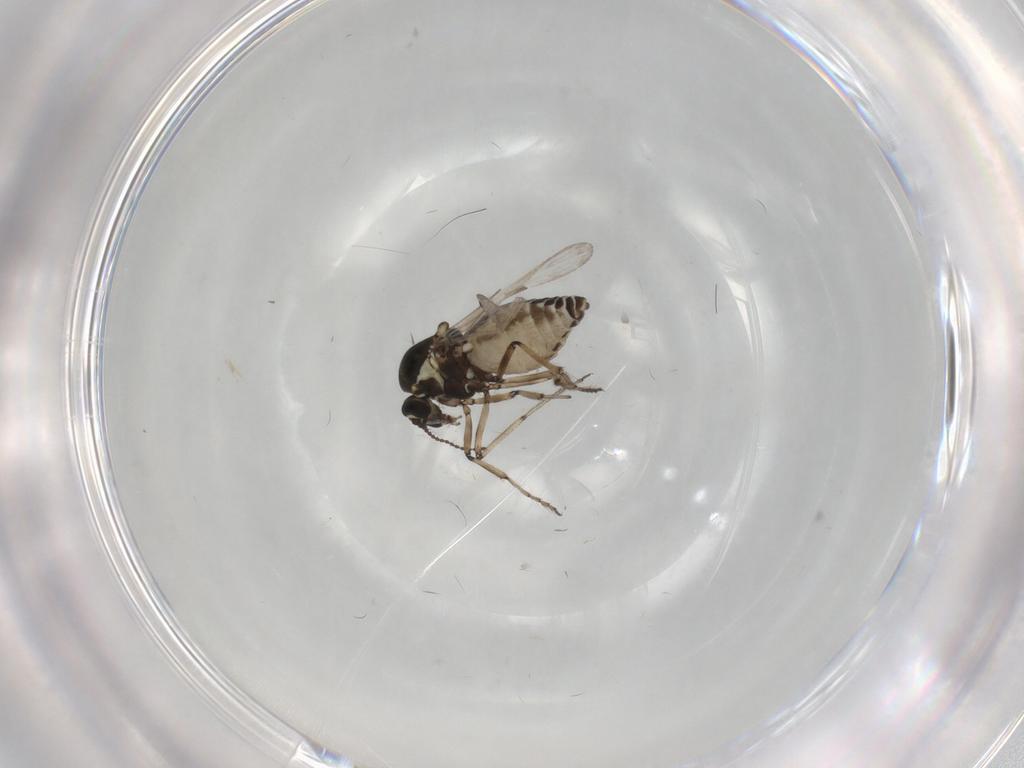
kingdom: Animalia
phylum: Arthropoda
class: Insecta
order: Diptera
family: Ceratopogonidae
